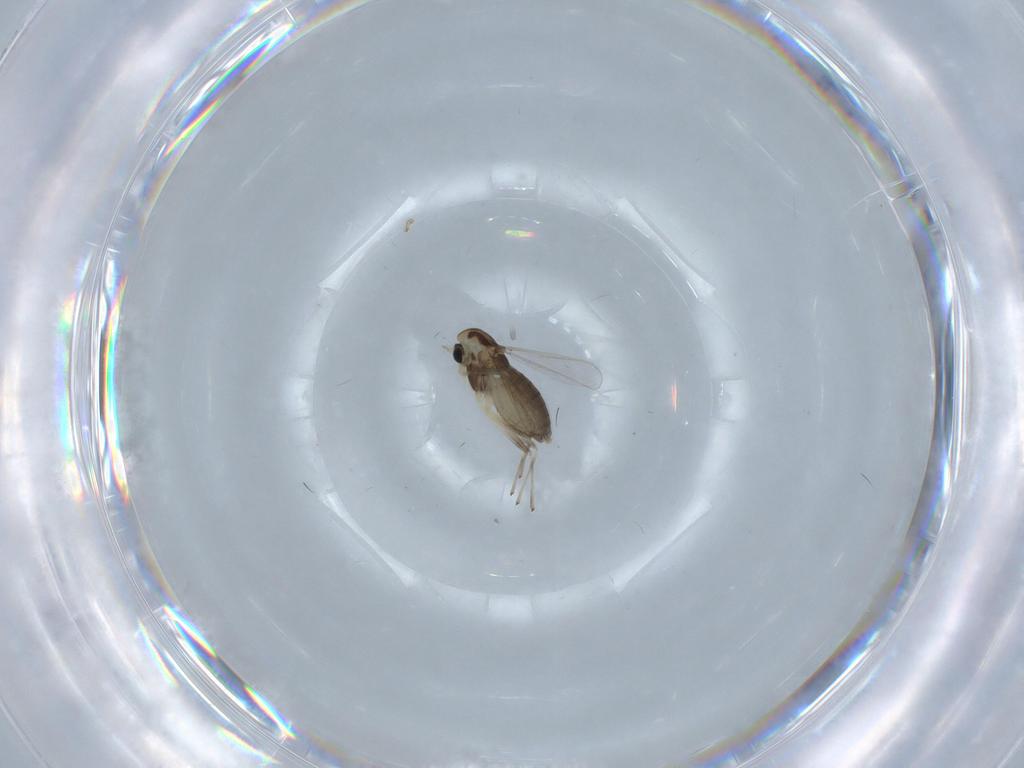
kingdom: Animalia
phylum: Arthropoda
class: Insecta
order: Diptera
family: Chironomidae
